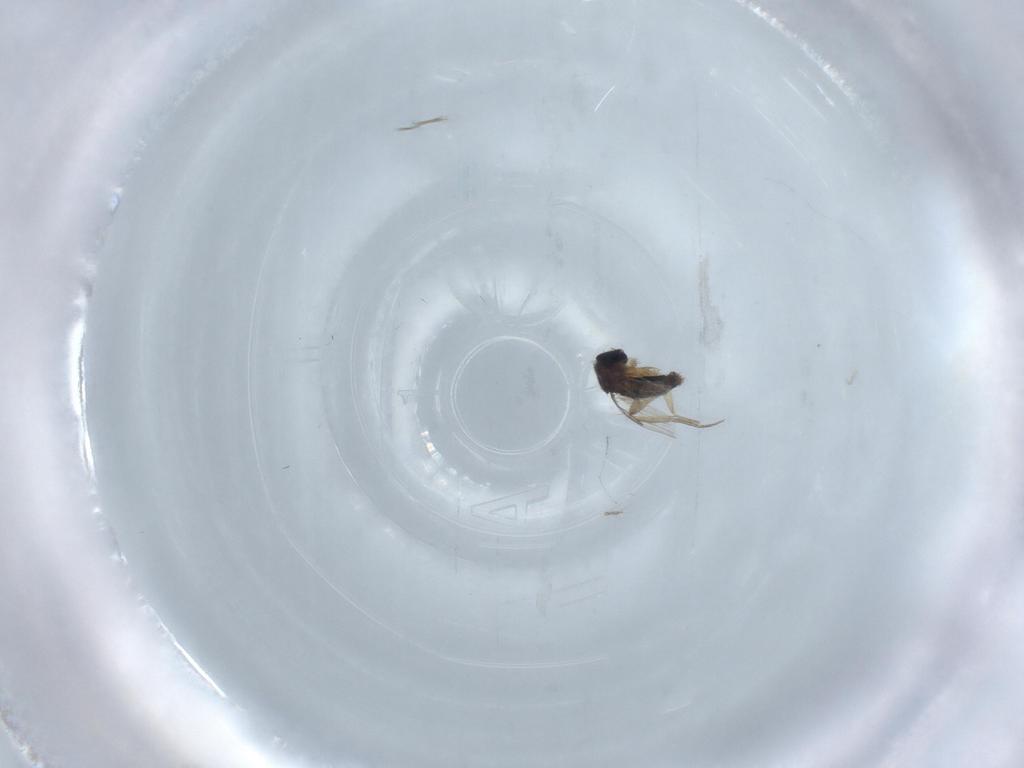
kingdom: Animalia
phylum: Arthropoda
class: Insecta
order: Diptera
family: Phoridae
